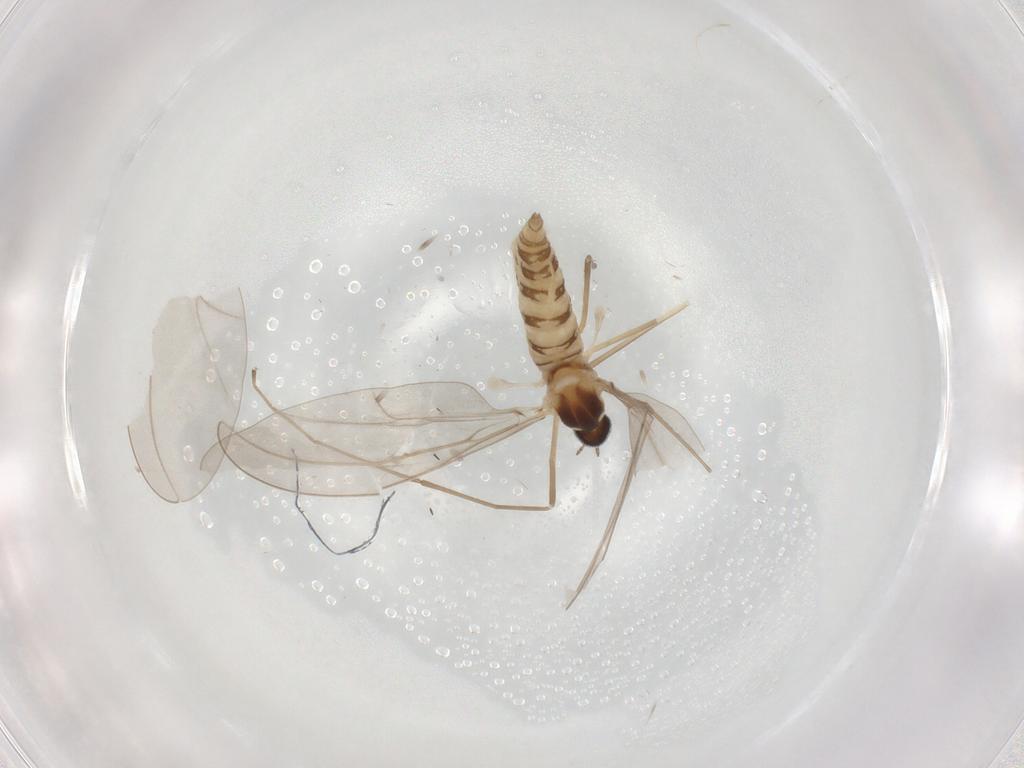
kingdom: Animalia
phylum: Arthropoda
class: Insecta
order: Diptera
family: Cecidomyiidae
